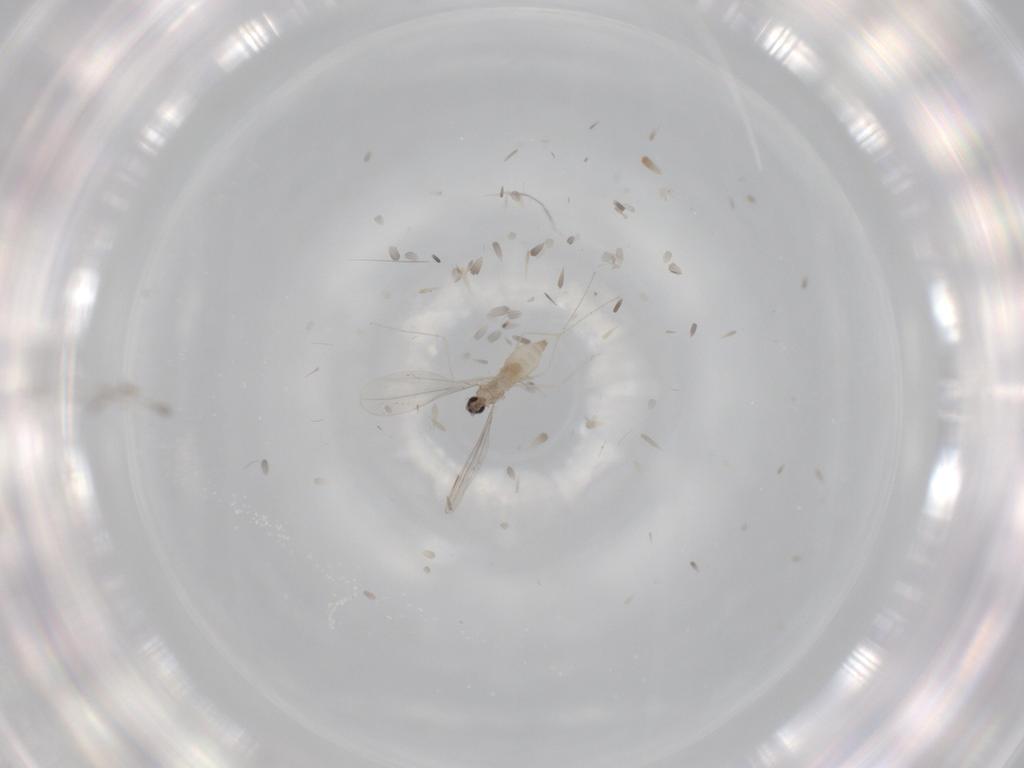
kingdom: Animalia
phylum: Arthropoda
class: Insecta
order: Diptera
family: Cecidomyiidae
